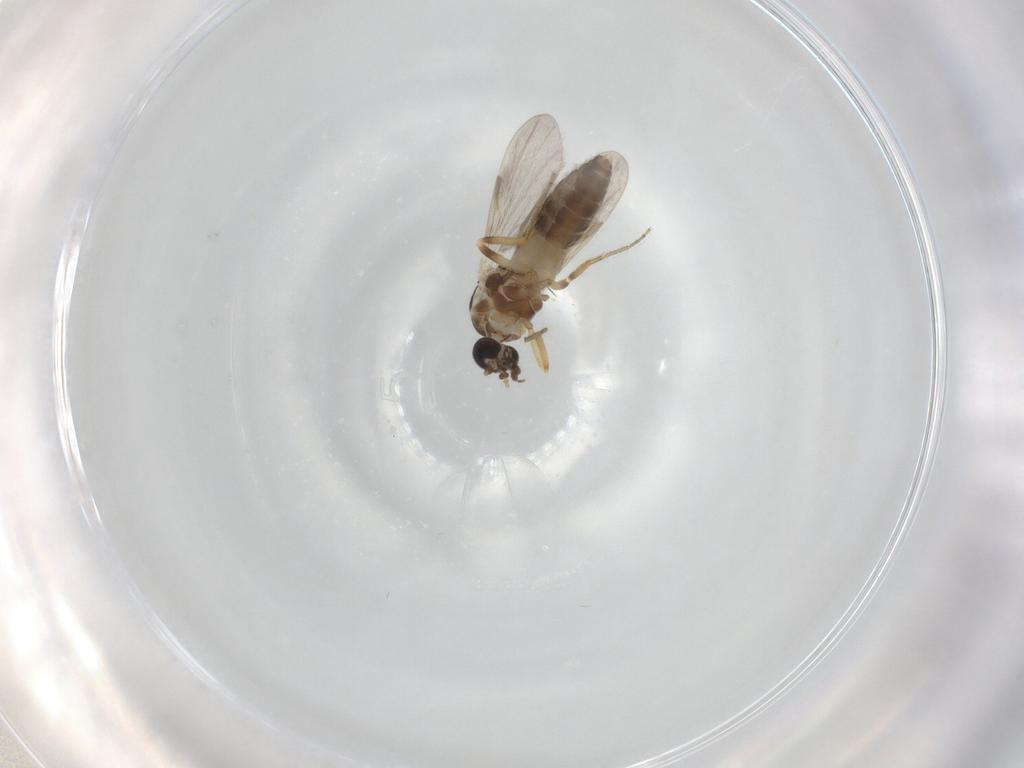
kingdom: Animalia
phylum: Arthropoda
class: Insecta
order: Diptera
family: Ceratopogonidae
